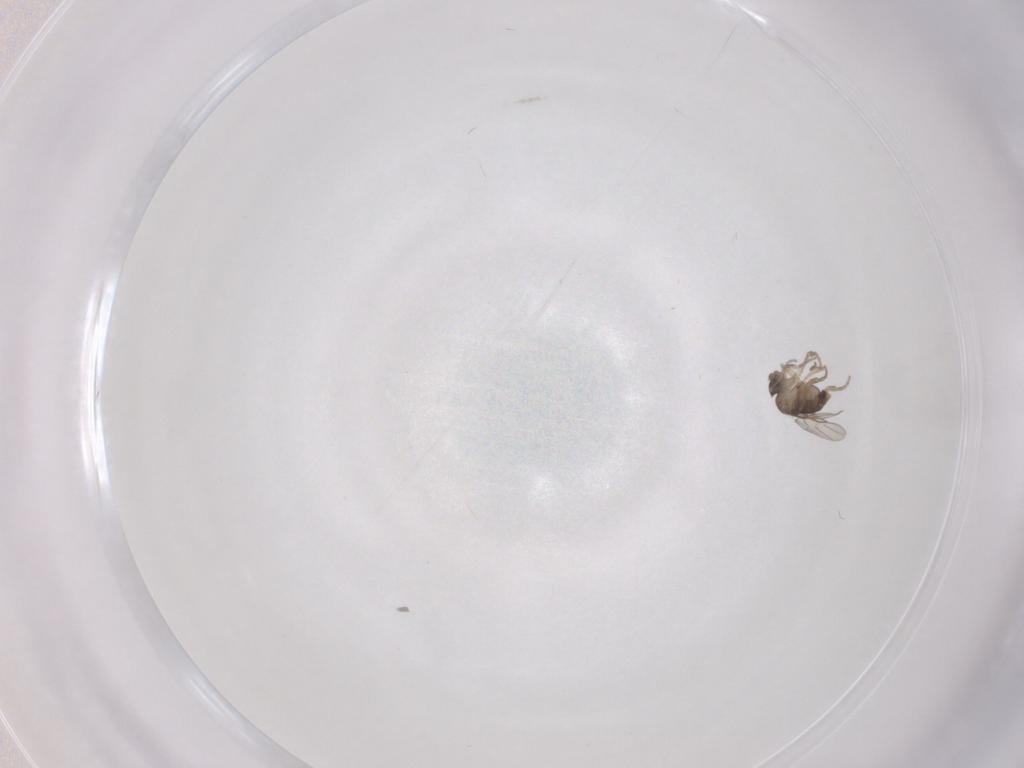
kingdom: Animalia
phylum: Arthropoda
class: Insecta
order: Diptera
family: Phoridae
